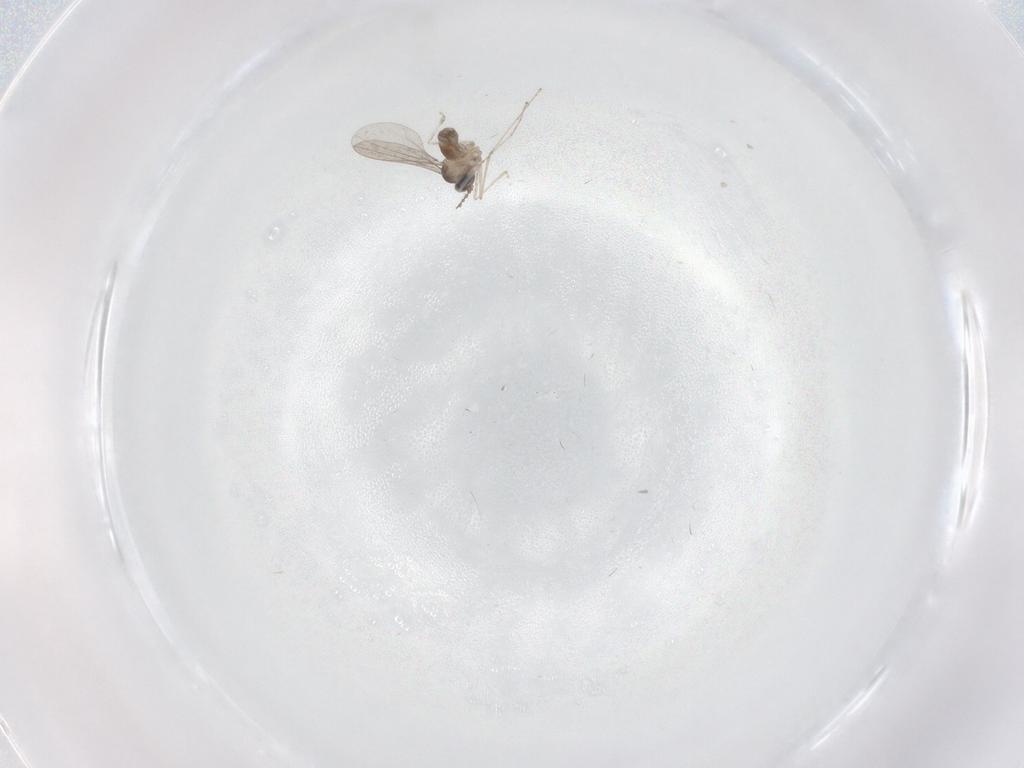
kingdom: Animalia
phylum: Arthropoda
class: Insecta
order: Diptera
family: Cecidomyiidae
